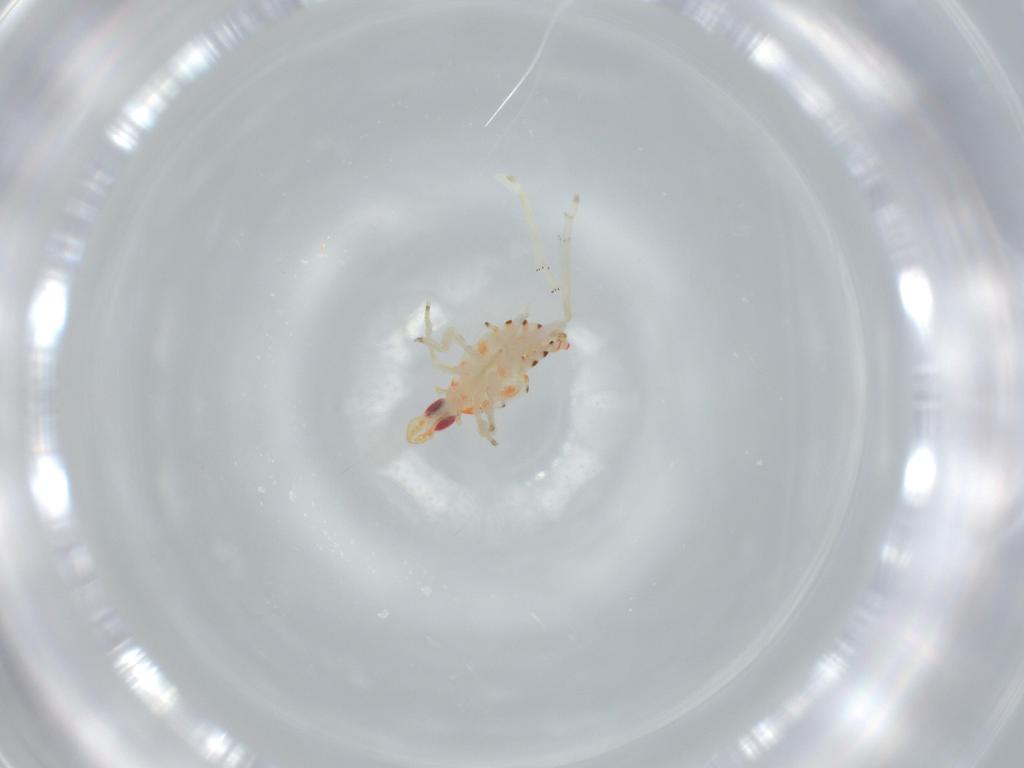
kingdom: Animalia
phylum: Arthropoda
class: Insecta
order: Hemiptera
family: Tropiduchidae
